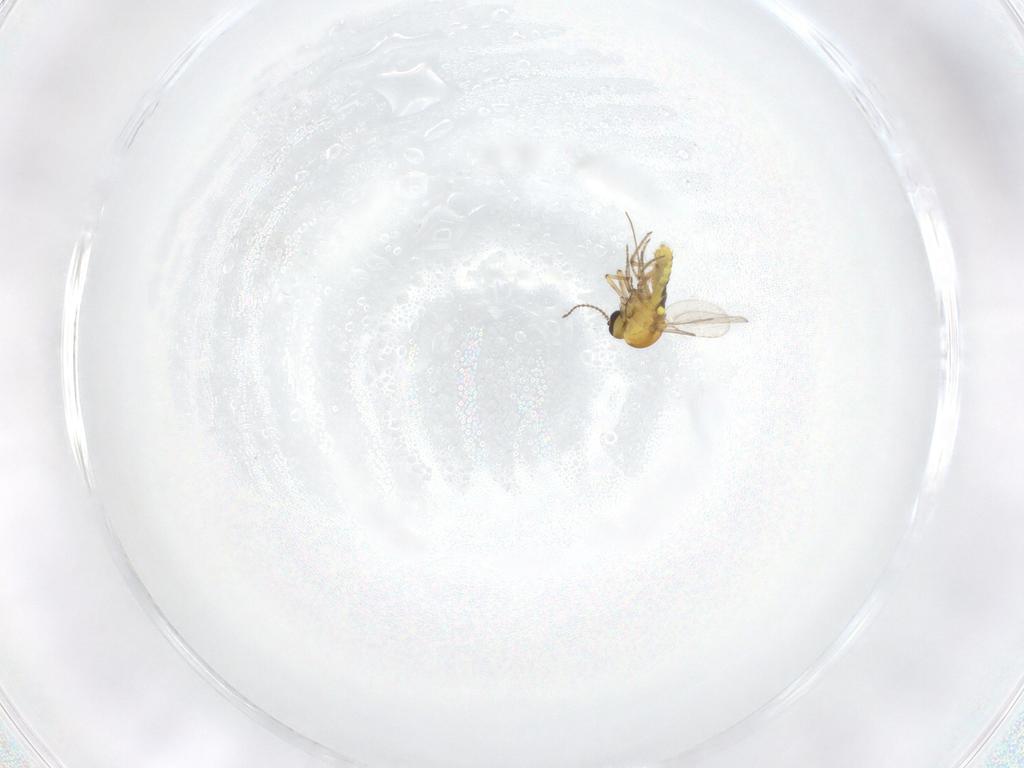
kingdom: Animalia
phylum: Arthropoda
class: Insecta
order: Diptera
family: Ceratopogonidae
